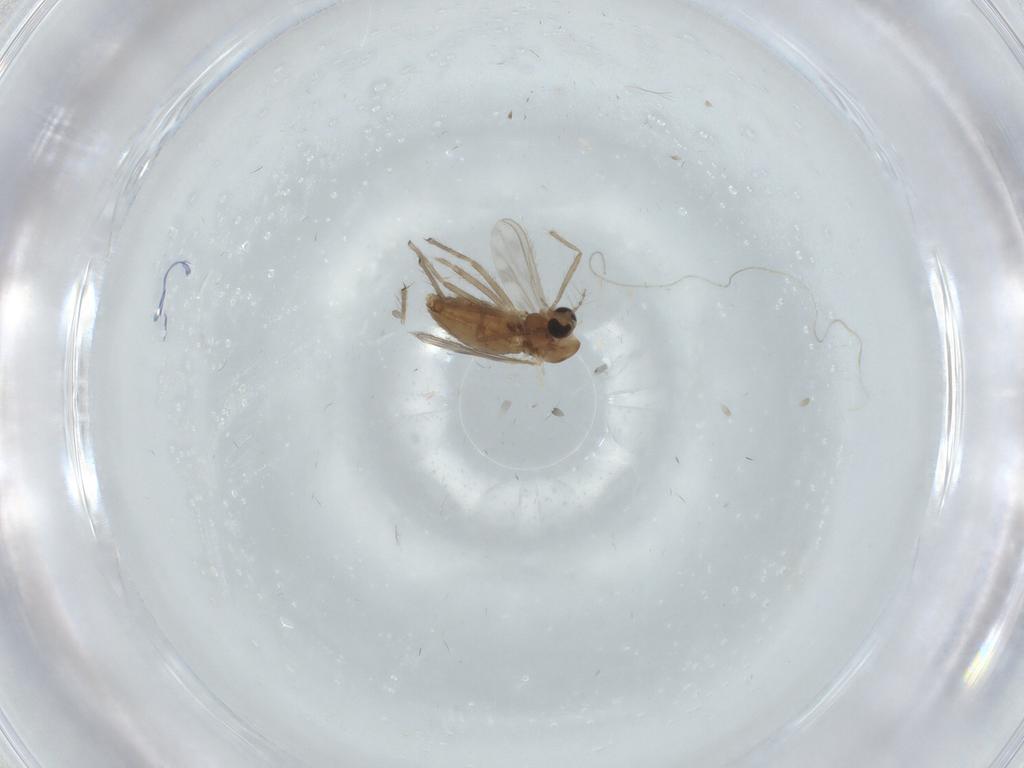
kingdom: Animalia
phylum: Arthropoda
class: Insecta
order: Diptera
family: Chironomidae
